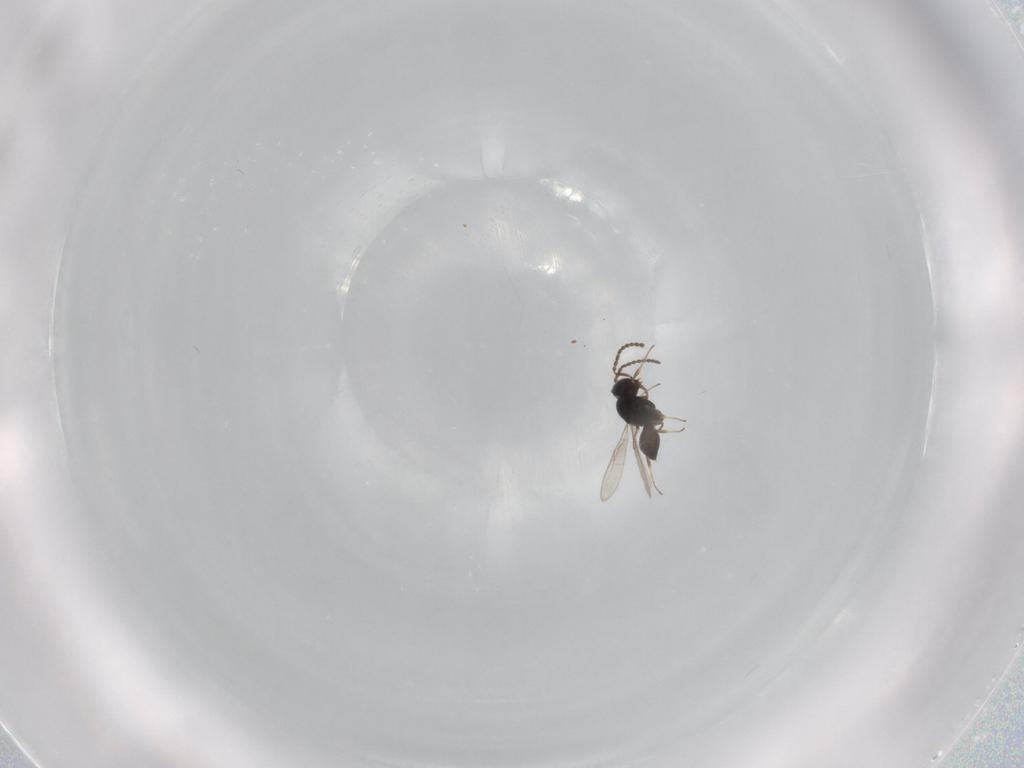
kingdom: Animalia
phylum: Arthropoda
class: Insecta
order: Hymenoptera
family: Scelionidae
